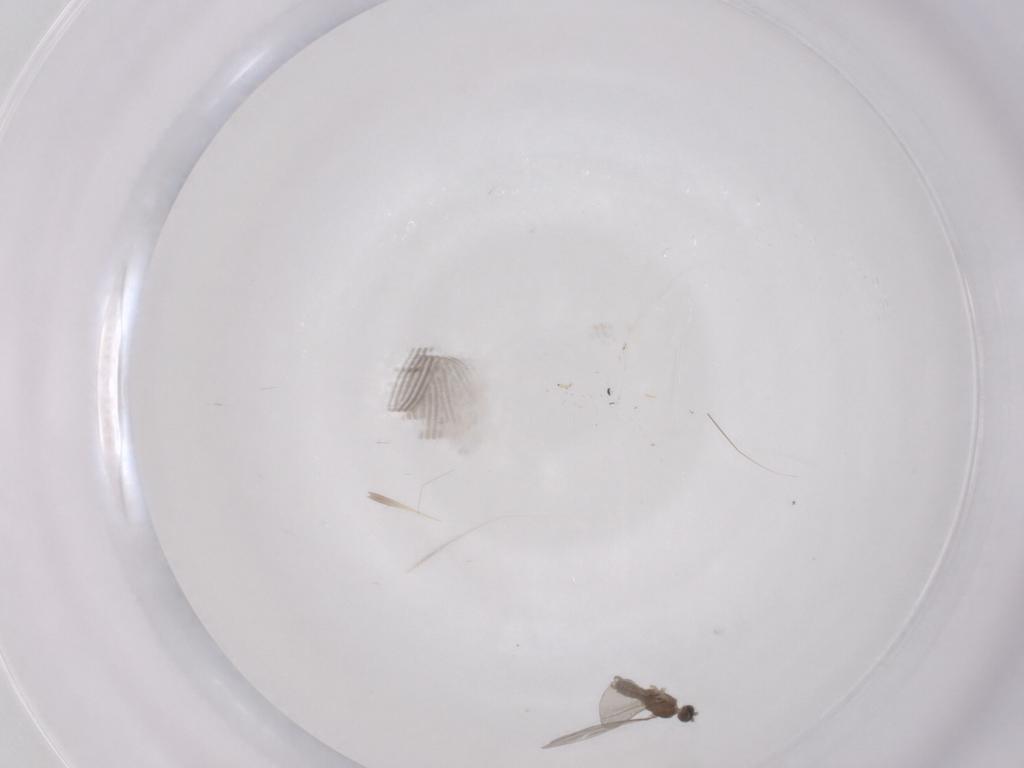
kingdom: Animalia
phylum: Arthropoda
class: Insecta
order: Diptera
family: Cecidomyiidae
